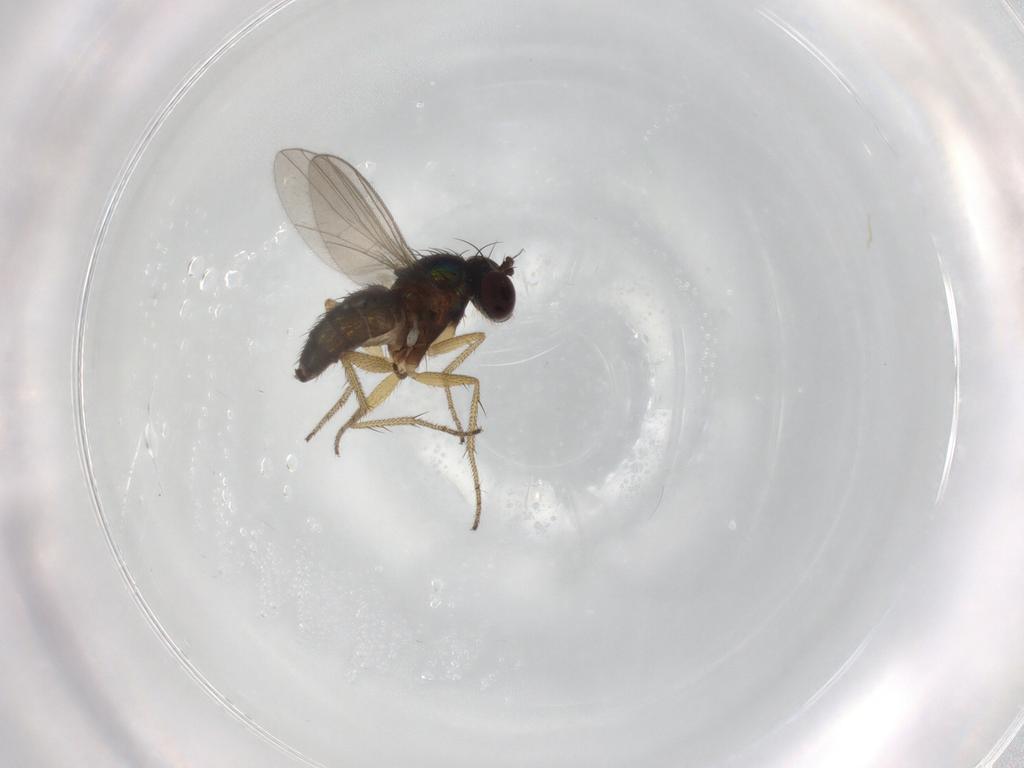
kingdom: Animalia
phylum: Arthropoda
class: Insecta
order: Diptera
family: Dolichopodidae
